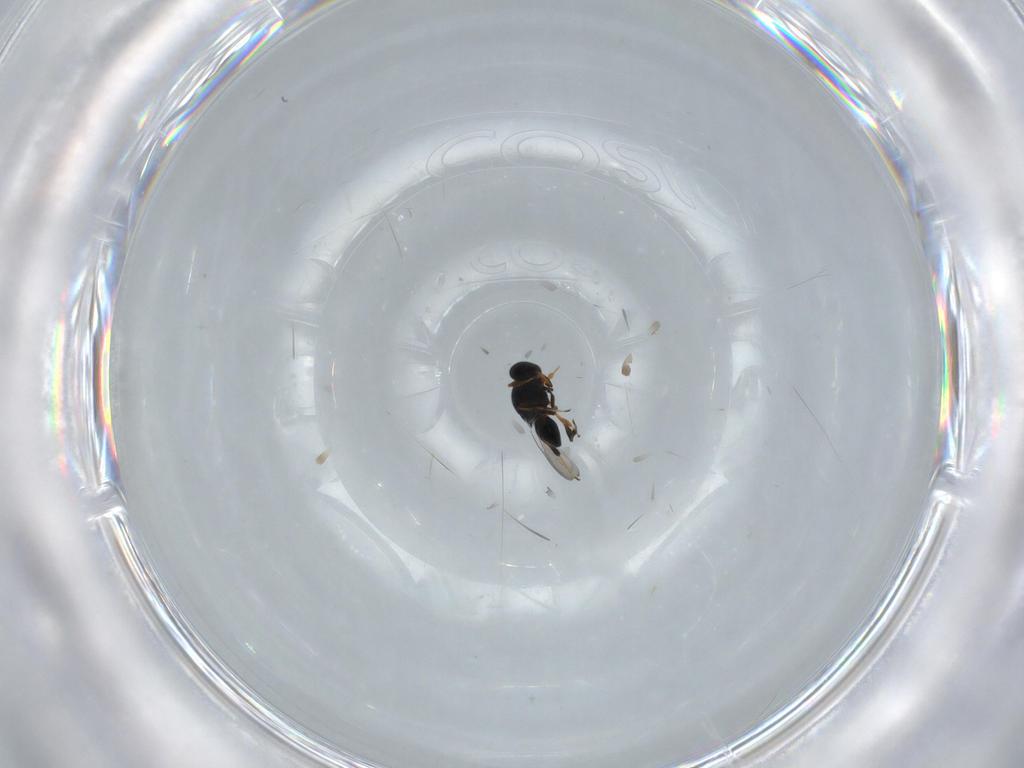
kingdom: Animalia
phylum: Arthropoda
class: Insecta
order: Hymenoptera
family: Platygastridae
